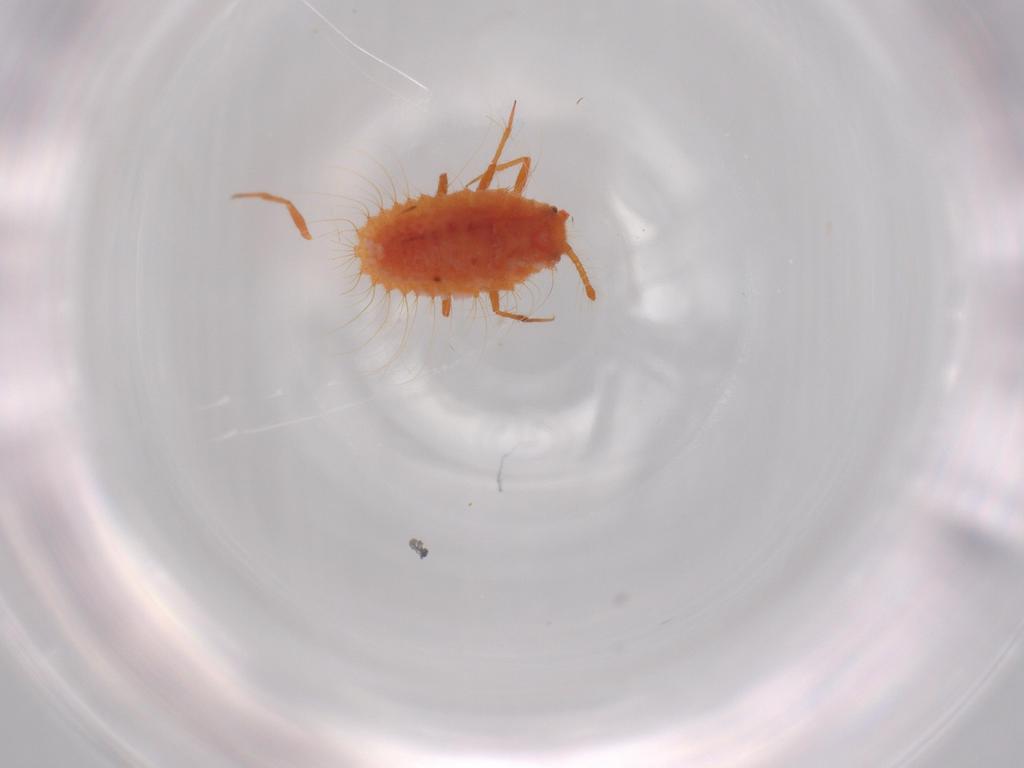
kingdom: Animalia
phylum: Arthropoda
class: Insecta
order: Hemiptera
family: Coccoidea_incertae_sedis
